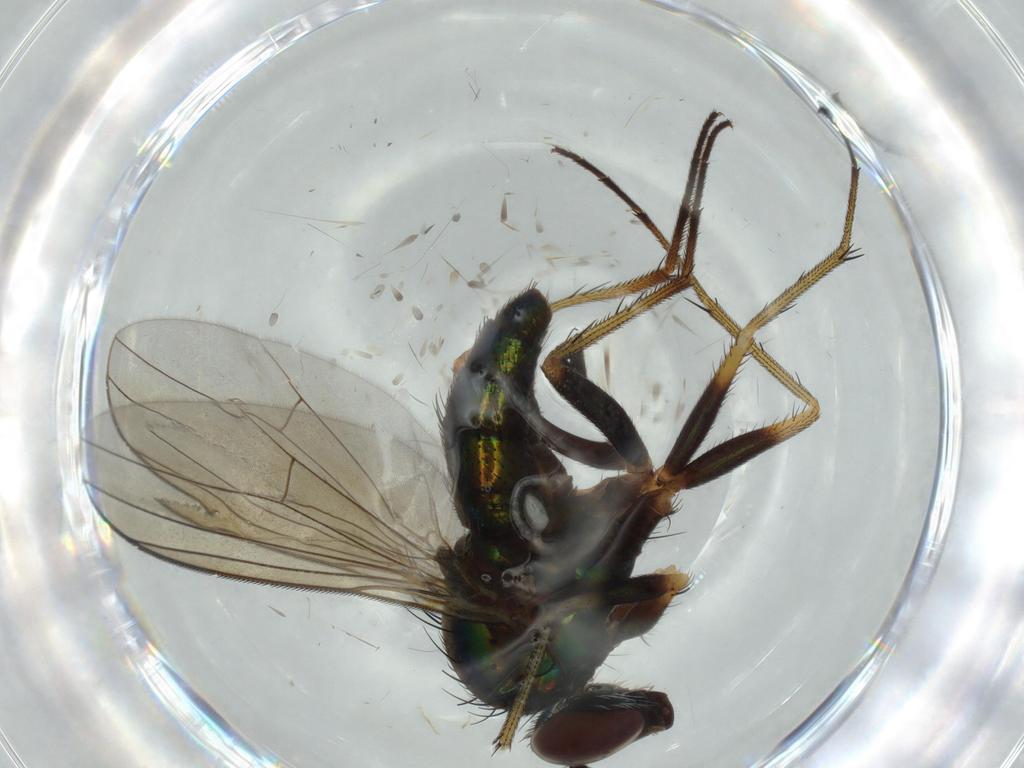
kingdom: Animalia
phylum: Arthropoda
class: Insecta
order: Diptera
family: Dolichopodidae
